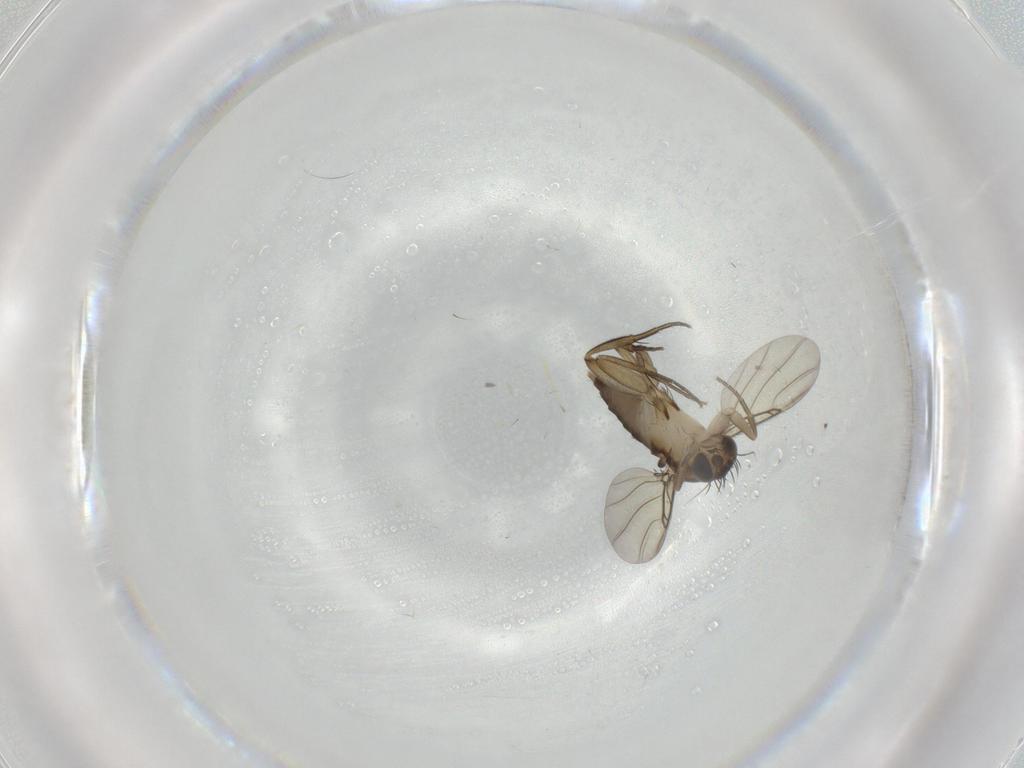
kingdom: Animalia
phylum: Arthropoda
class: Insecta
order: Diptera
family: Phoridae
